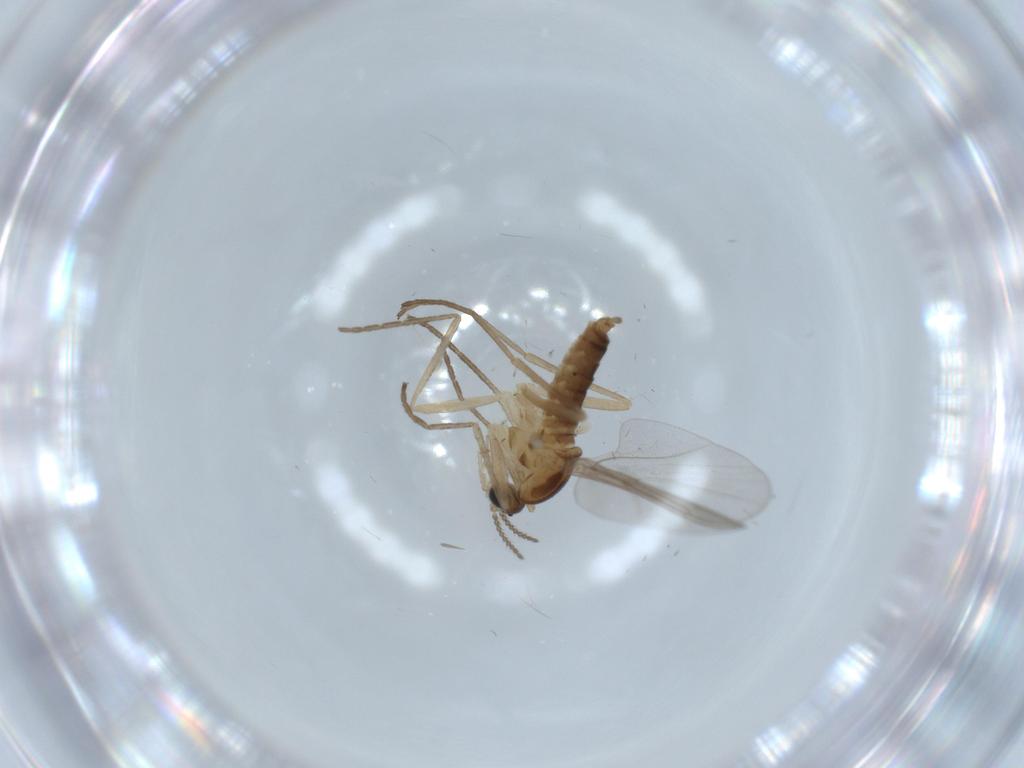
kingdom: Animalia
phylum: Arthropoda
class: Insecta
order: Diptera
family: Cecidomyiidae
